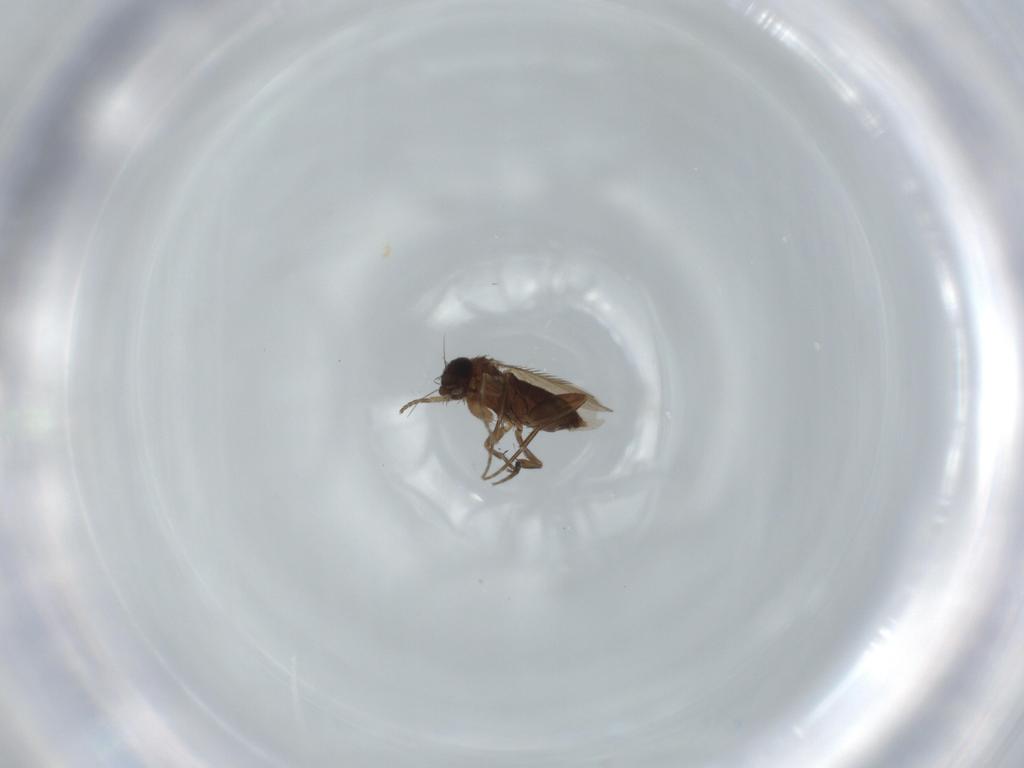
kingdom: Animalia
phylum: Arthropoda
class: Insecta
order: Diptera
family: Phoridae
